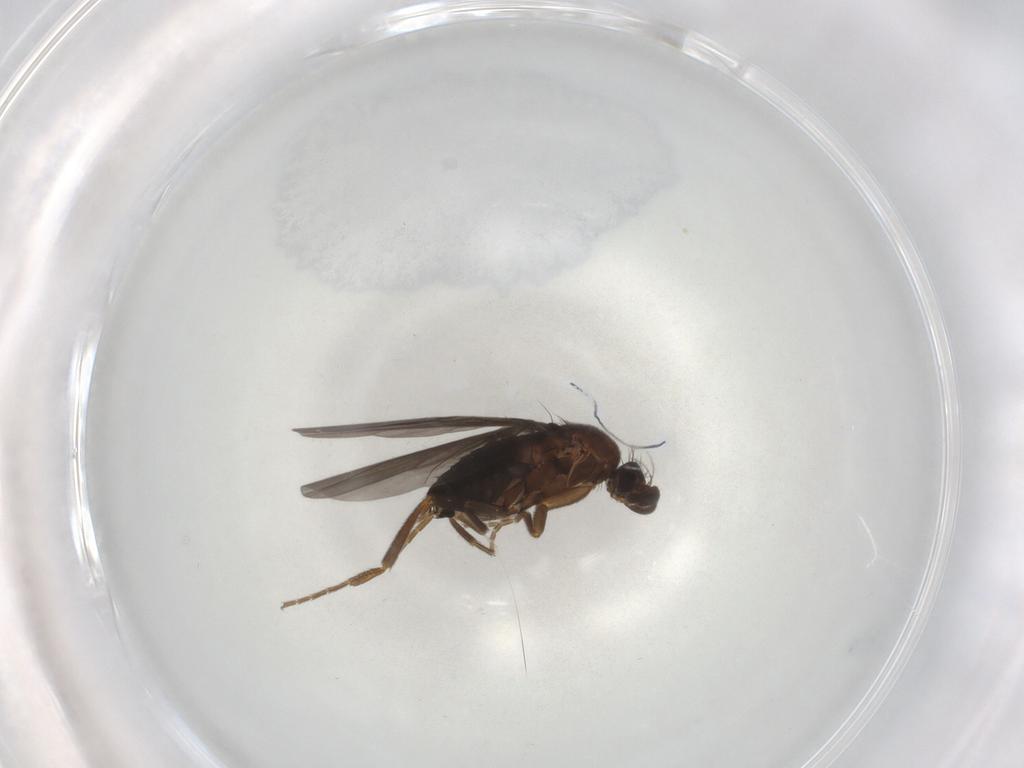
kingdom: Animalia
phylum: Arthropoda
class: Insecta
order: Diptera
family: Phoridae
